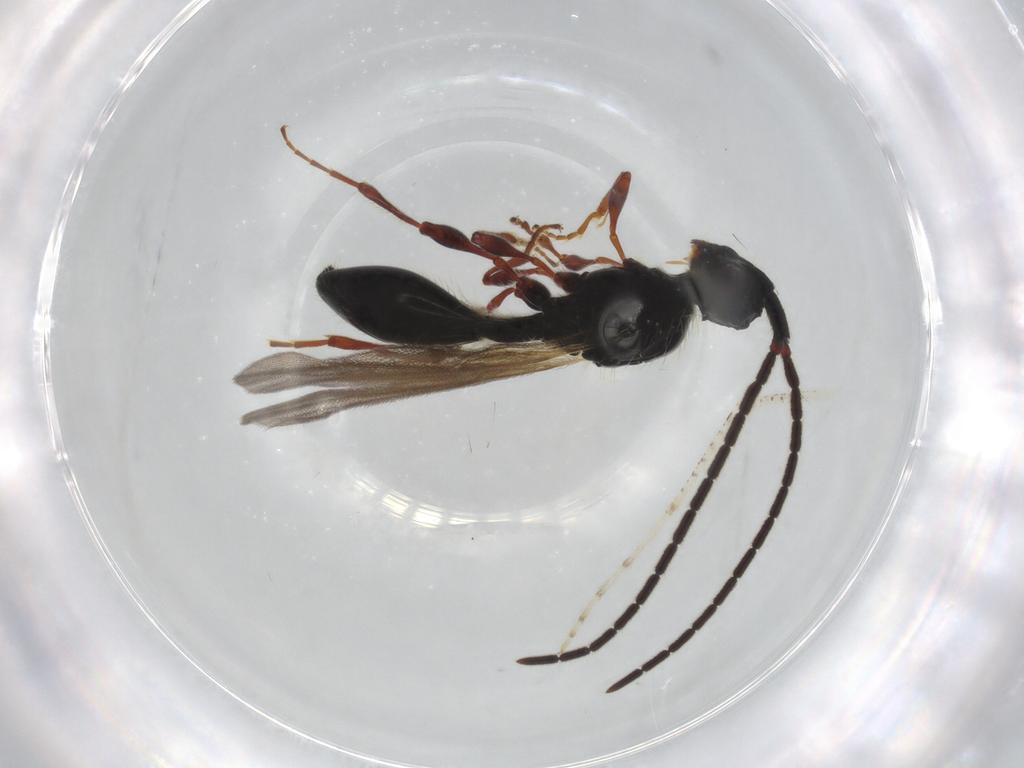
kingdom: Animalia
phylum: Arthropoda
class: Insecta
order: Hymenoptera
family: Diapriidae
